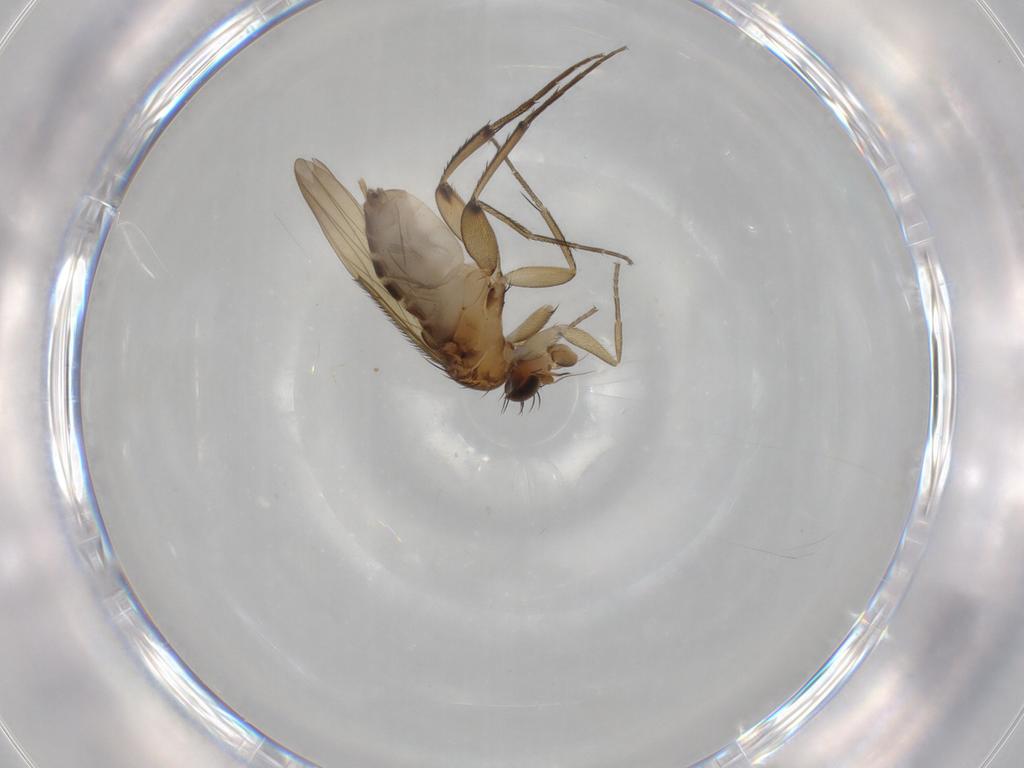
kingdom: Animalia
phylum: Arthropoda
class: Insecta
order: Diptera
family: Phoridae
